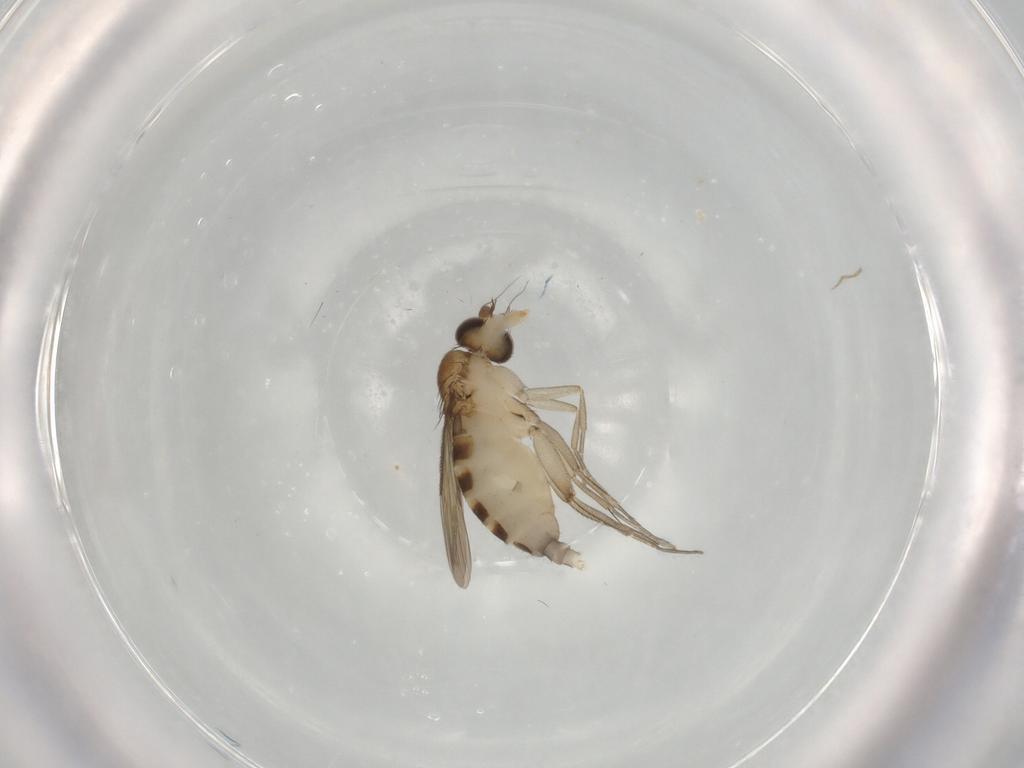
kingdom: Animalia
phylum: Arthropoda
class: Insecta
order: Diptera
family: Phoridae
